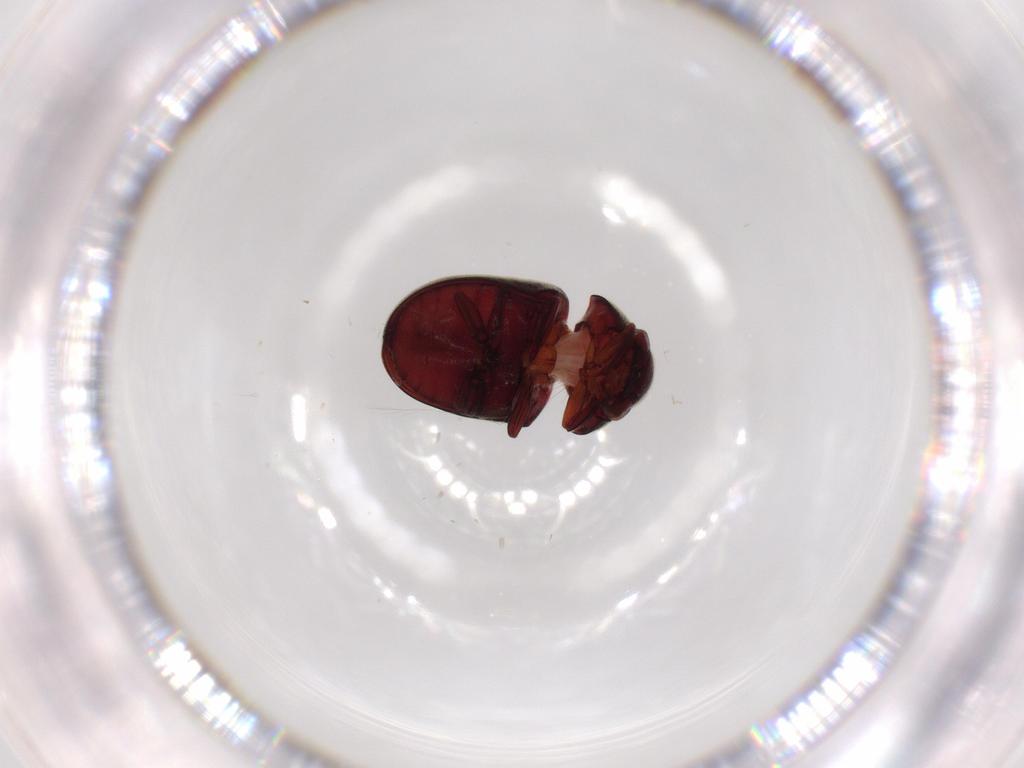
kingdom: Animalia
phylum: Arthropoda
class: Insecta
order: Coleoptera
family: Ptinidae
